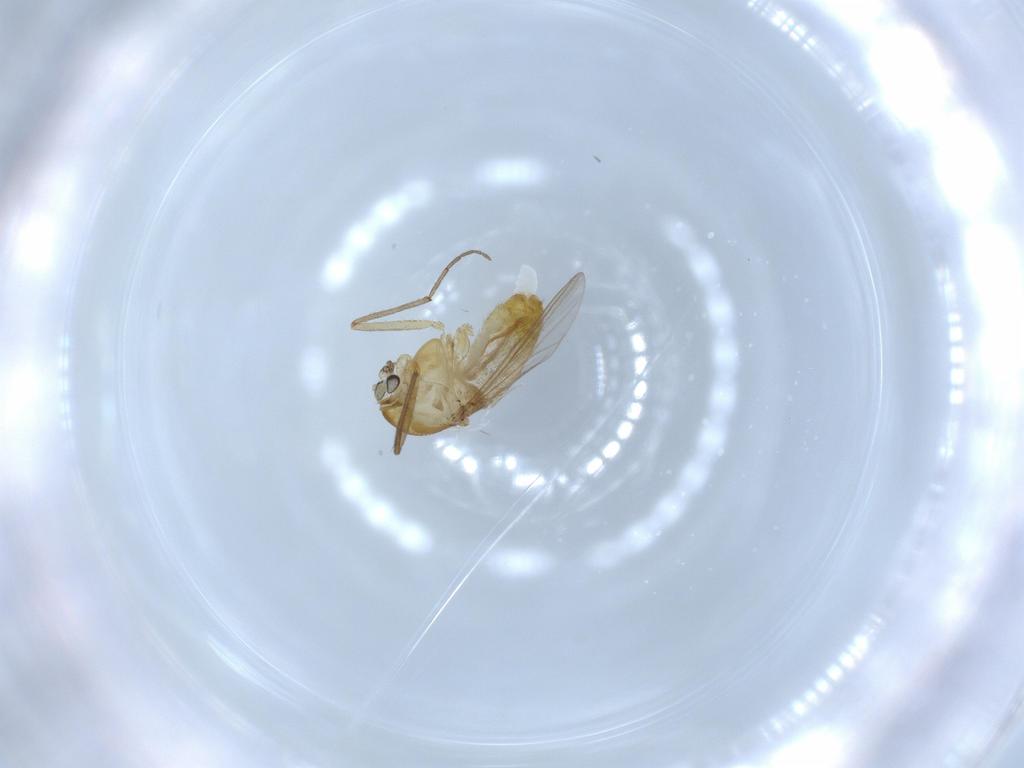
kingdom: Animalia
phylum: Arthropoda
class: Insecta
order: Diptera
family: Chironomidae
